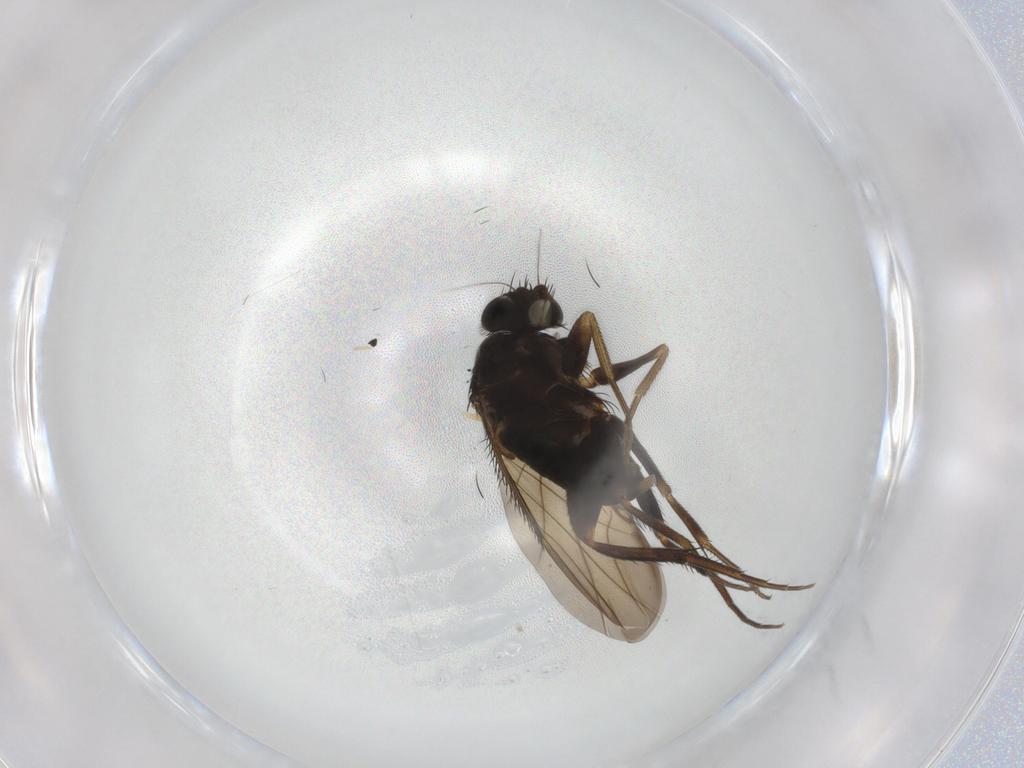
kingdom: Animalia
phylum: Arthropoda
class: Insecta
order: Diptera
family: Phoridae
